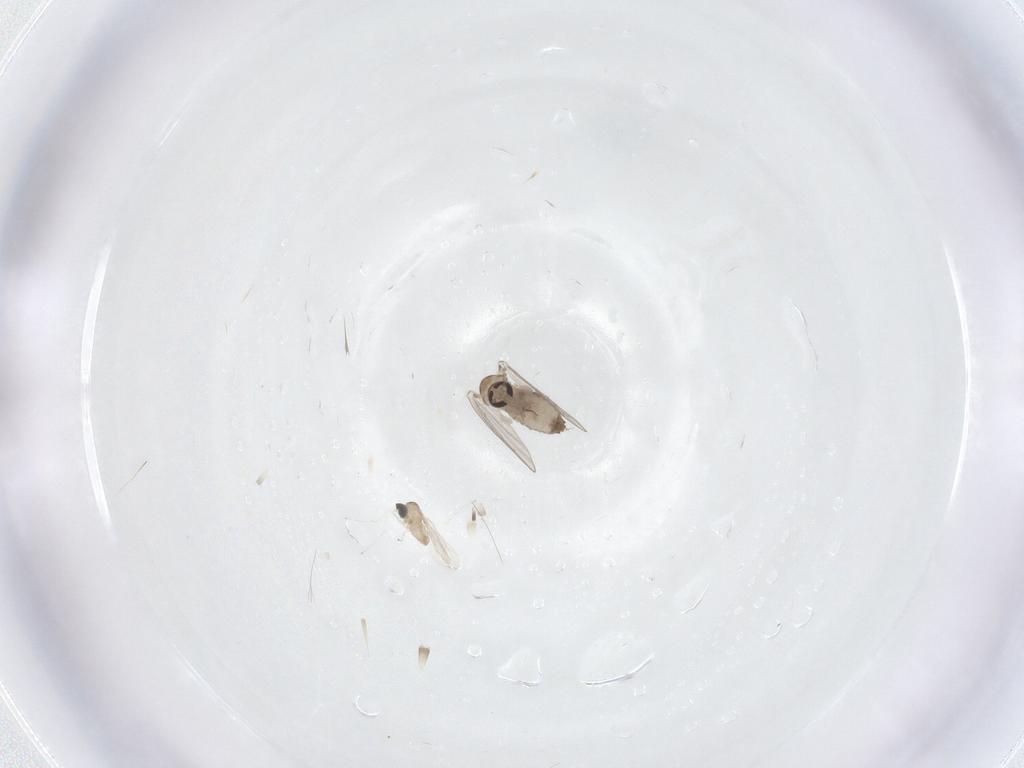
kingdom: Animalia
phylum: Arthropoda
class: Insecta
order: Diptera
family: Psychodidae
